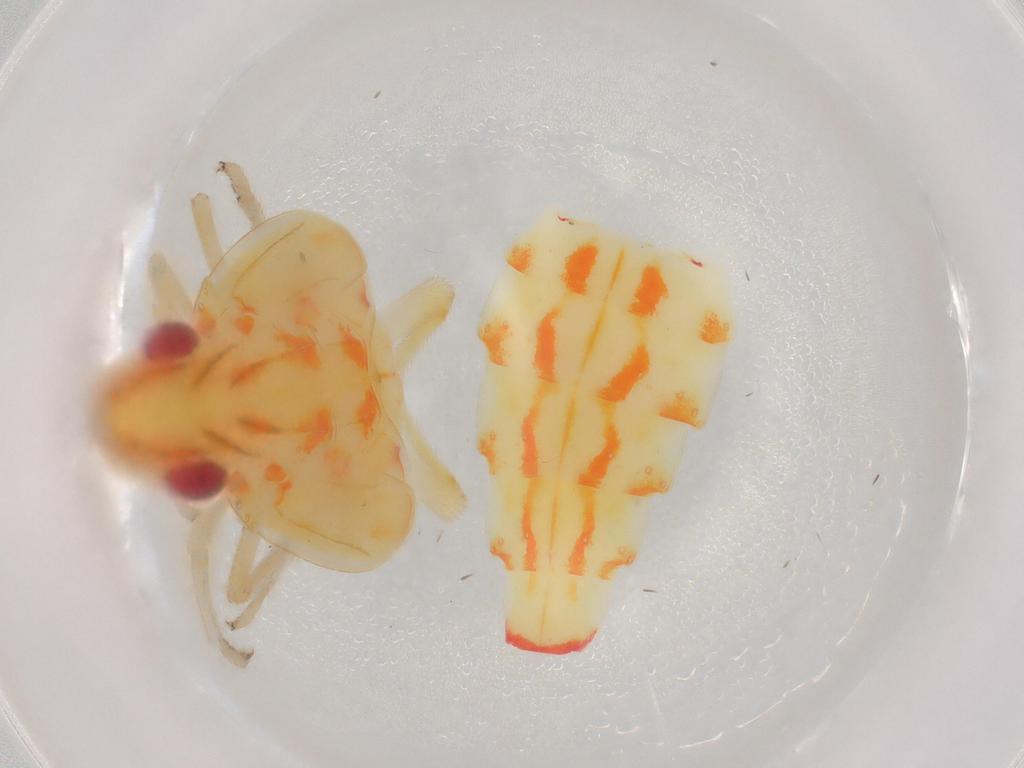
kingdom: Animalia
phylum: Arthropoda
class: Insecta
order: Hemiptera
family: Tropiduchidae
